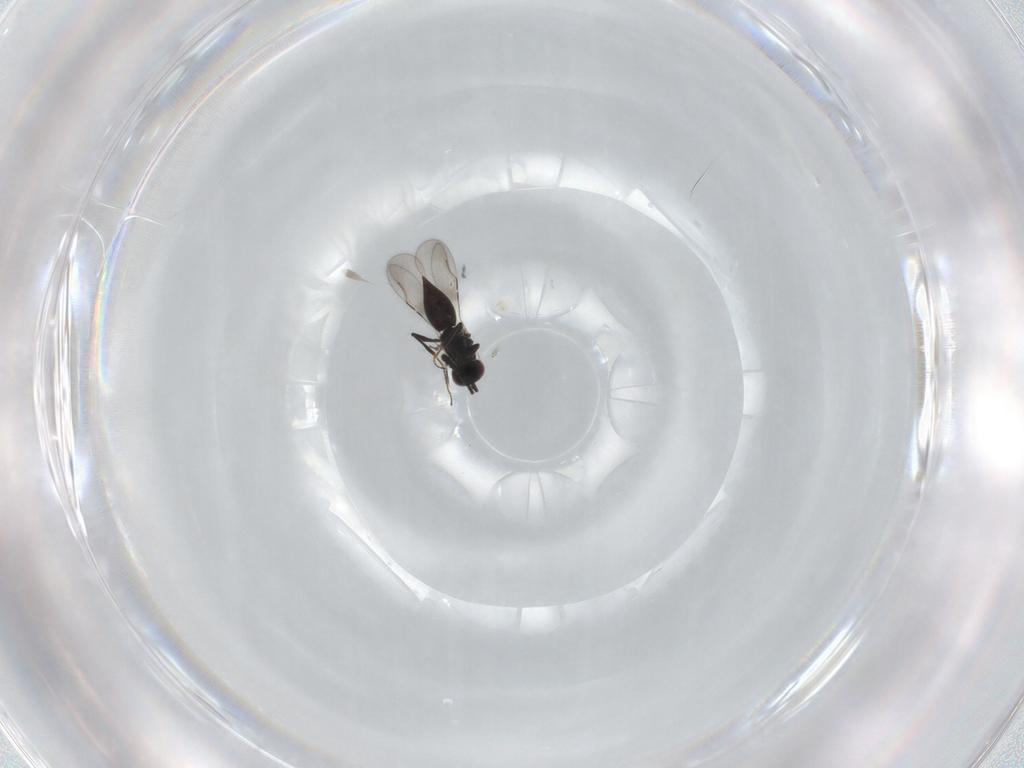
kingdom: Animalia
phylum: Arthropoda
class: Insecta
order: Hymenoptera
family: Ceraphronidae
